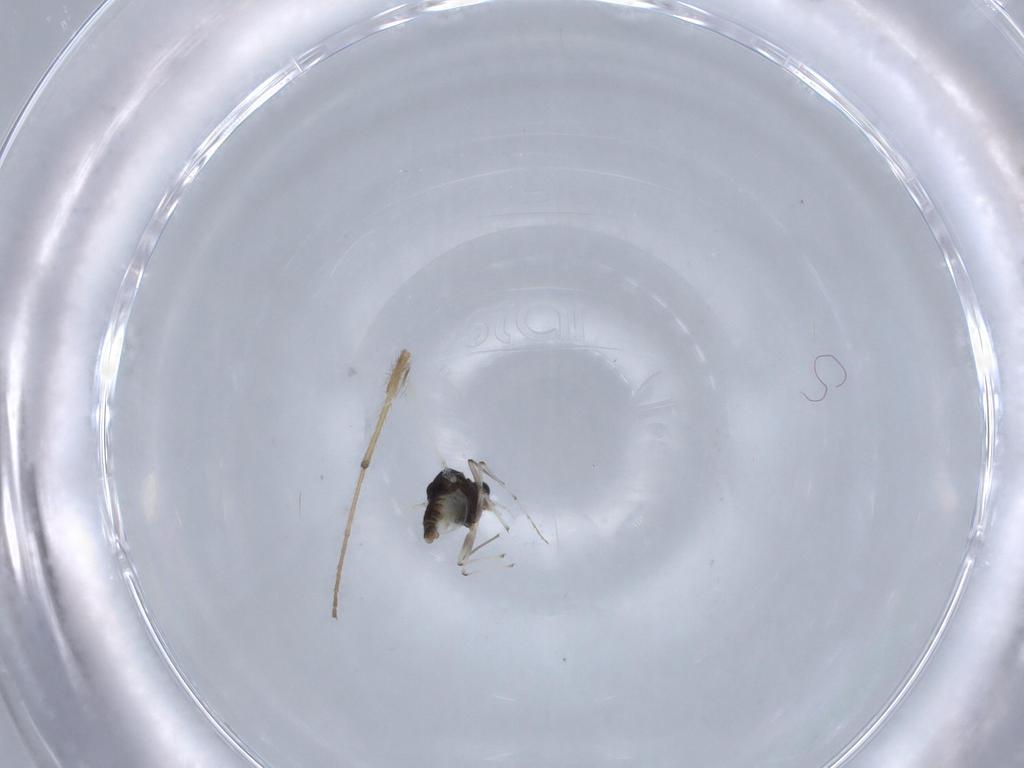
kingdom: Animalia
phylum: Arthropoda
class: Insecta
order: Diptera
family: Chironomidae
